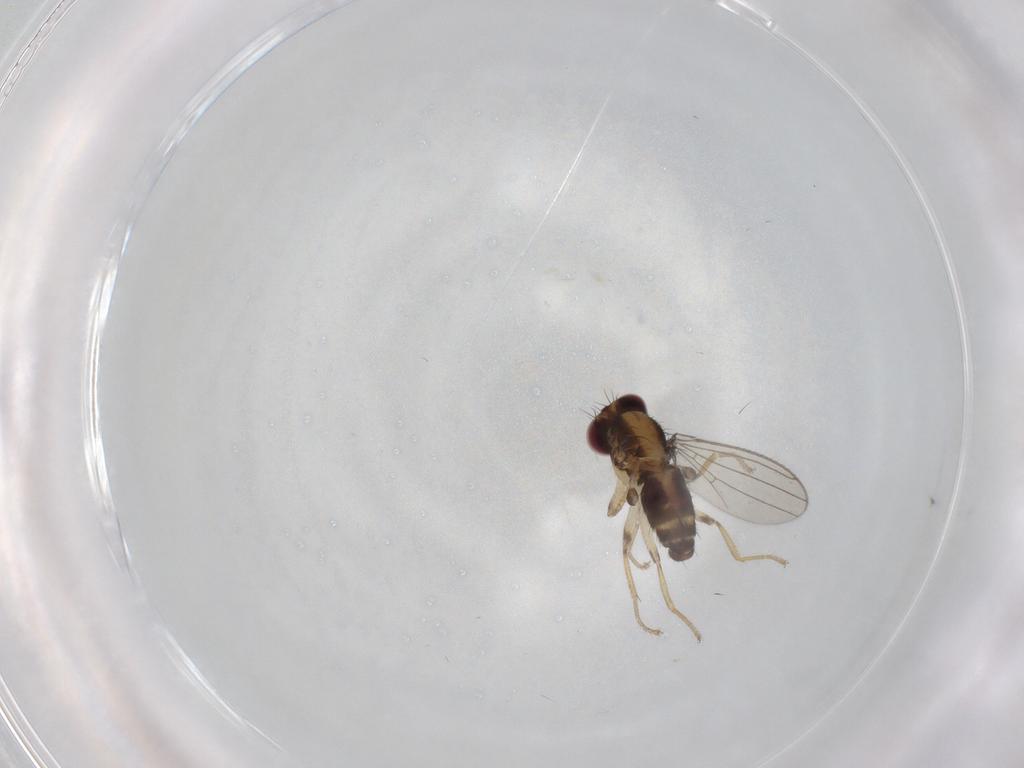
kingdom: Animalia
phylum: Arthropoda
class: Insecta
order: Diptera
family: Anthomyzidae
